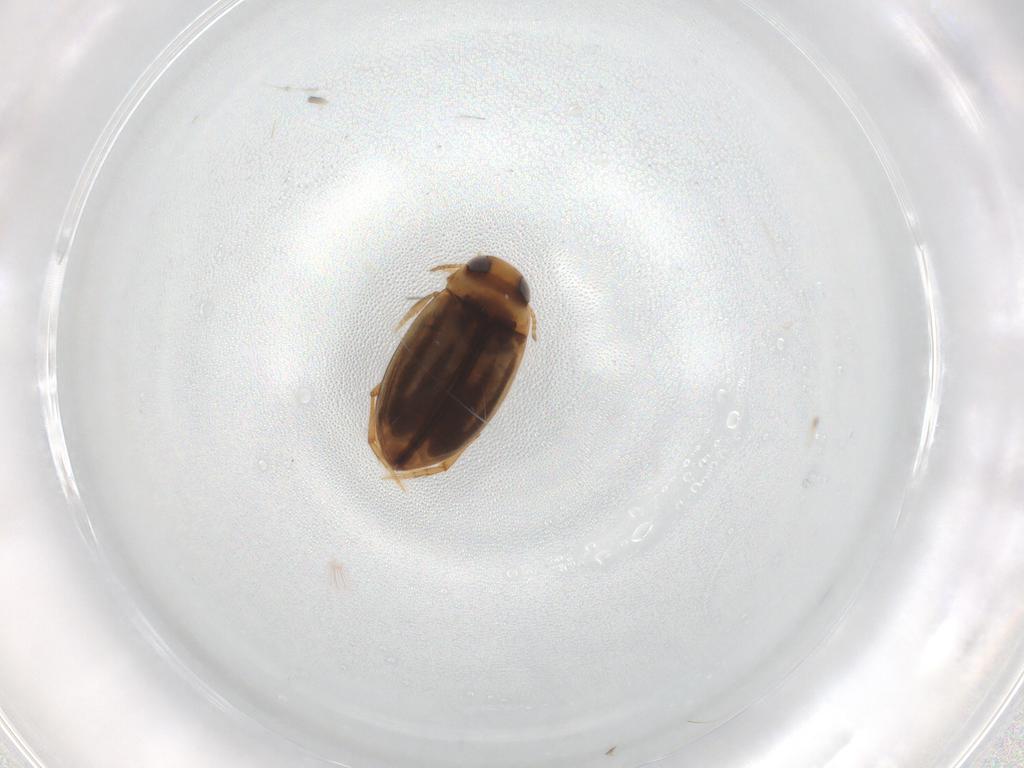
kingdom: Animalia
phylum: Arthropoda
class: Insecta
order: Coleoptera
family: Dytiscidae
